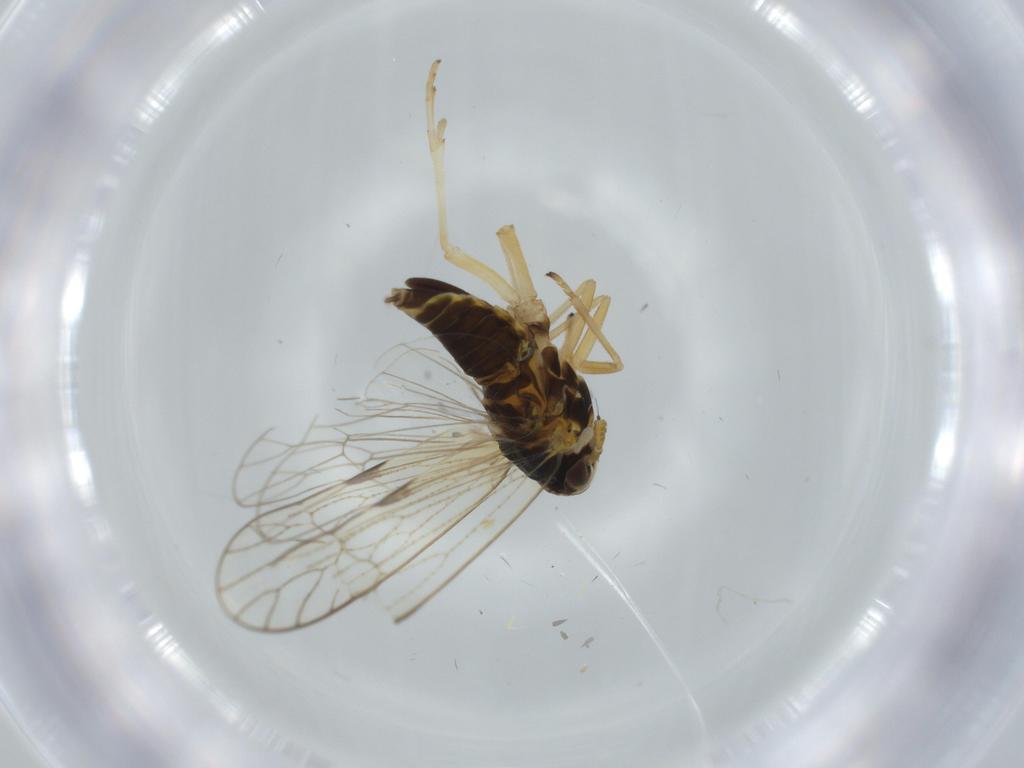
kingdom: Animalia
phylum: Arthropoda
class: Insecta
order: Hemiptera
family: Cicadellidae
